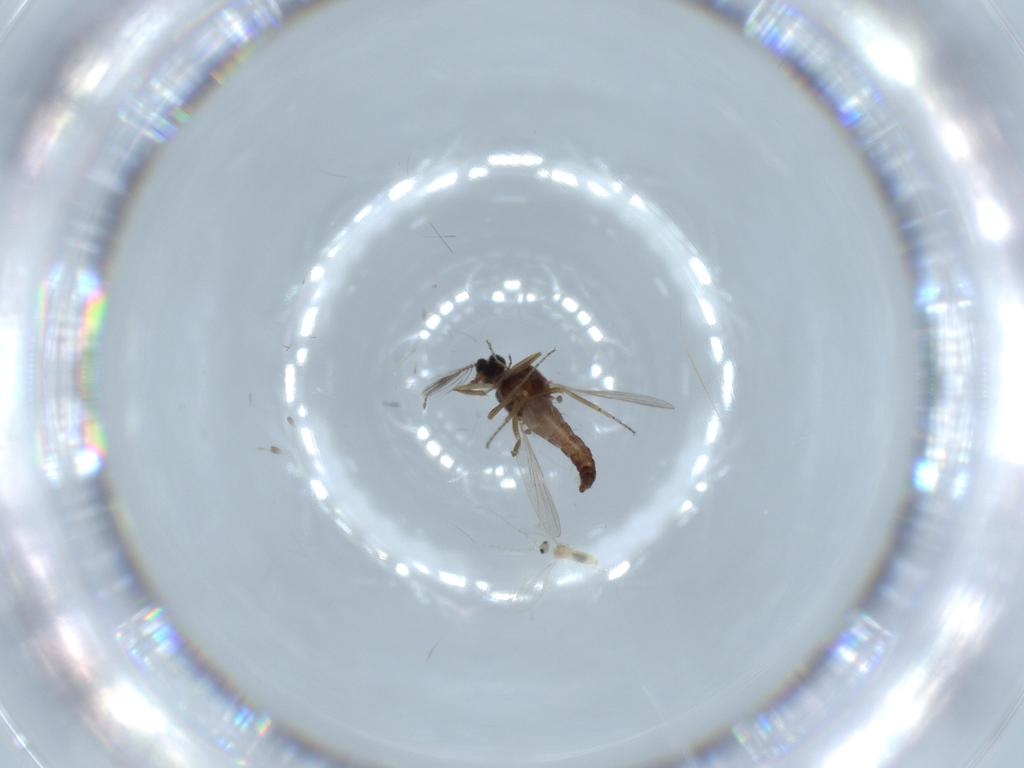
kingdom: Animalia
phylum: Arthropoda
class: Insecta
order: Diptera
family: Cecidomyiidae
